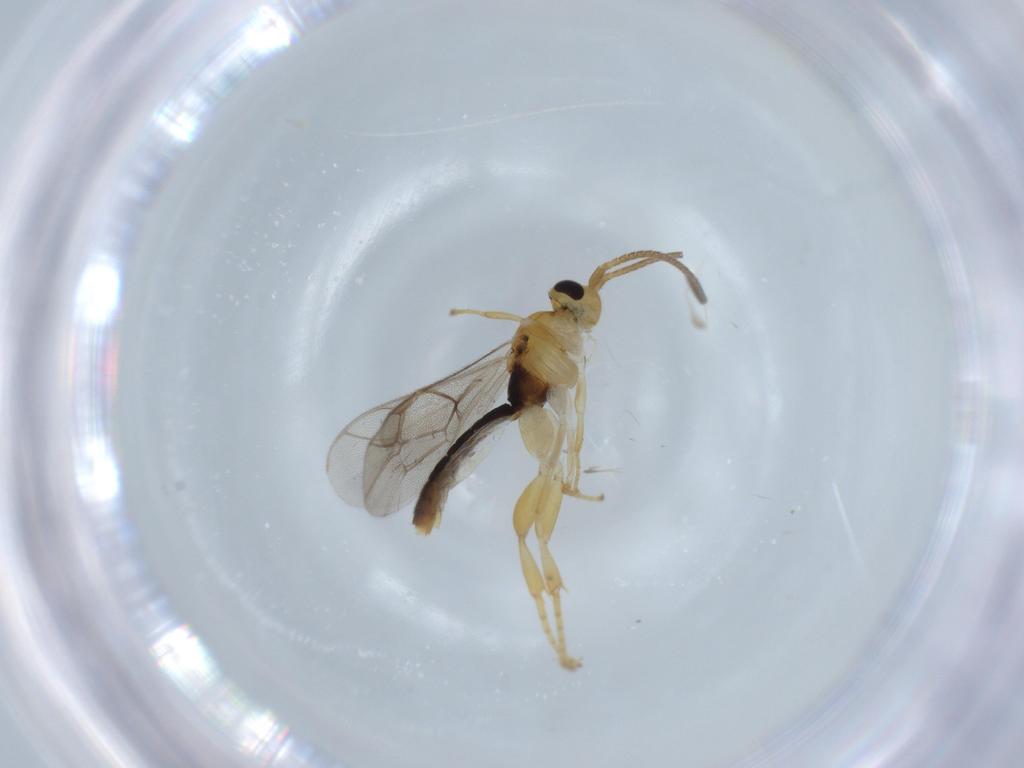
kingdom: Animalia
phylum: Arthropoda
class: Insecta
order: Hymenoptera
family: Ichneumonidae
